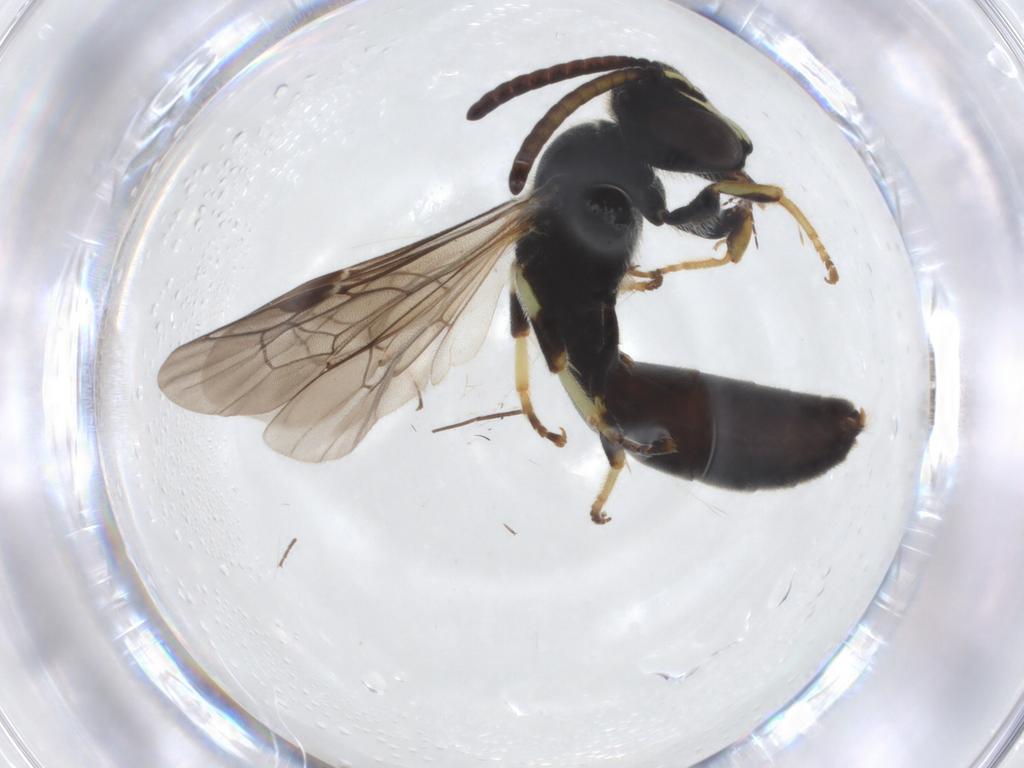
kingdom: Animalia
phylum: Arthropoda
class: Insecta
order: Hymenoptera
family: Colletidae
